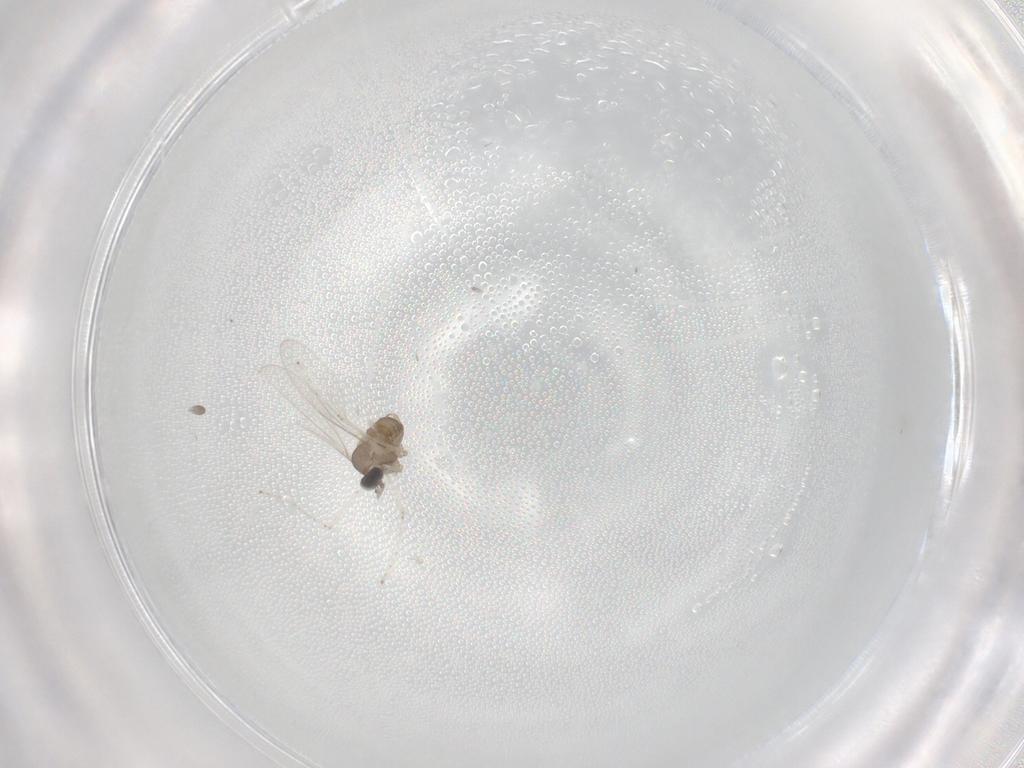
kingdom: Animalia
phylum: Arthropoda
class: Insecta
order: Diptera
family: Cecidomyiidae
